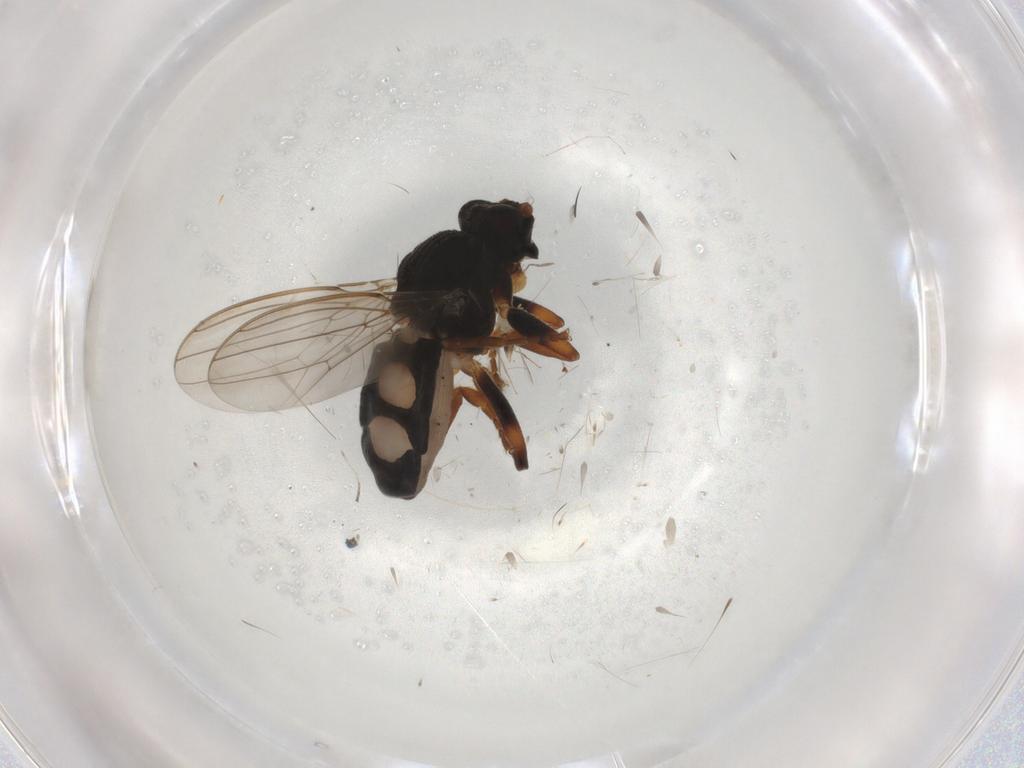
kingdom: Animalia
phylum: Arthropoda
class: Insecta
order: Diptera
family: Sphaeroceridae
